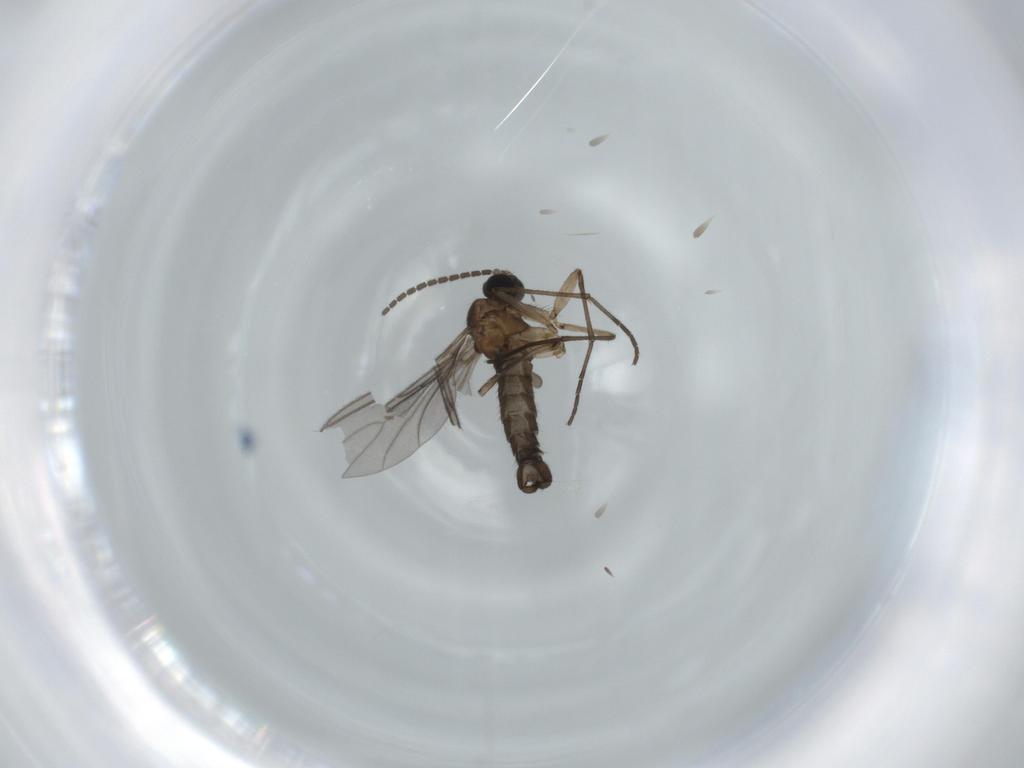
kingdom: Animalia
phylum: Arthropoda
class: Insecta
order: Diptera
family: Sciaridae
